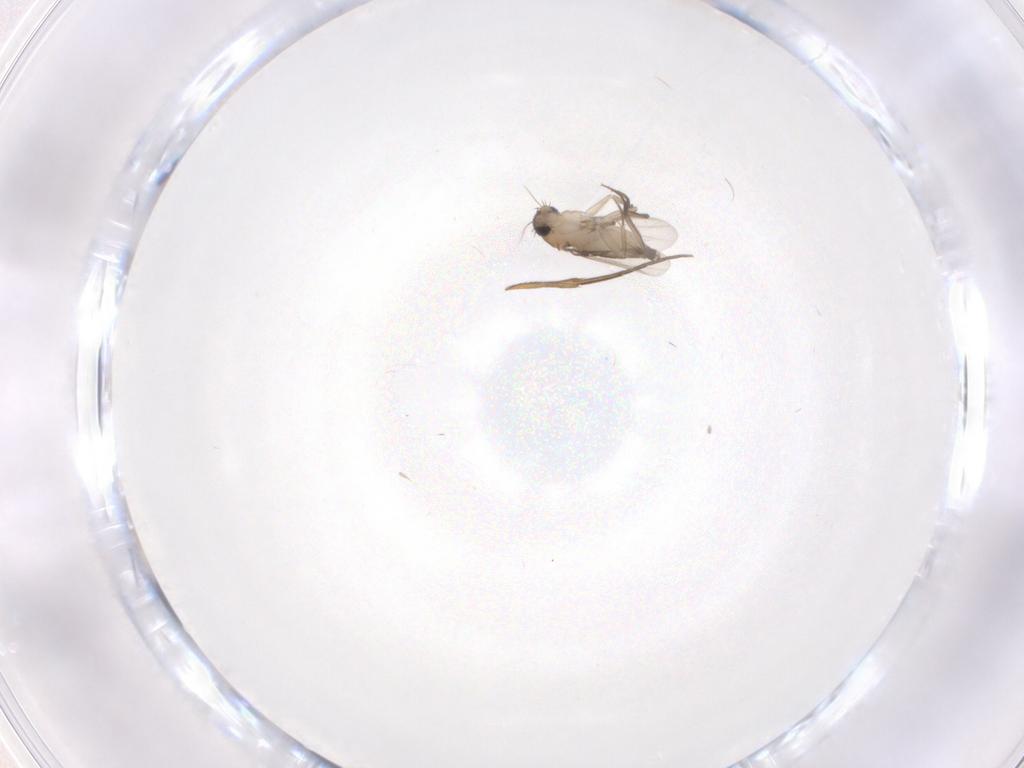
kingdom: Animalia
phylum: Arthropoda
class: Insecta
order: Diptera
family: Phoridae
